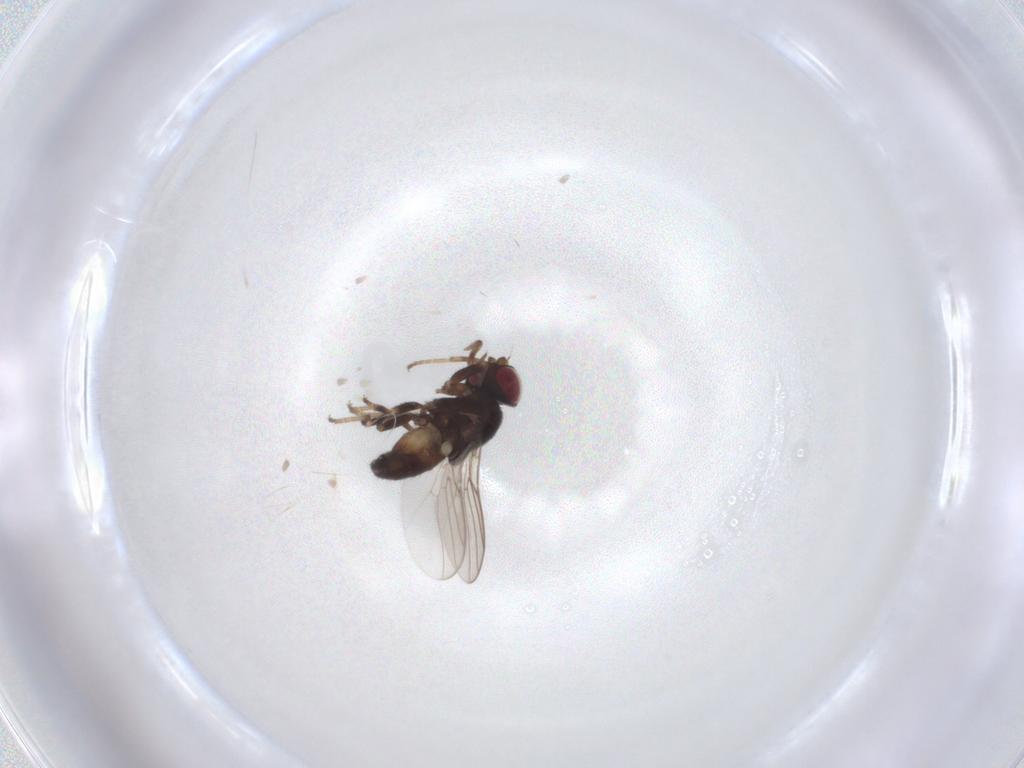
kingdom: Animalia
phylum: Arthropoda
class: Insecta
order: Diptera
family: Chloropidae
